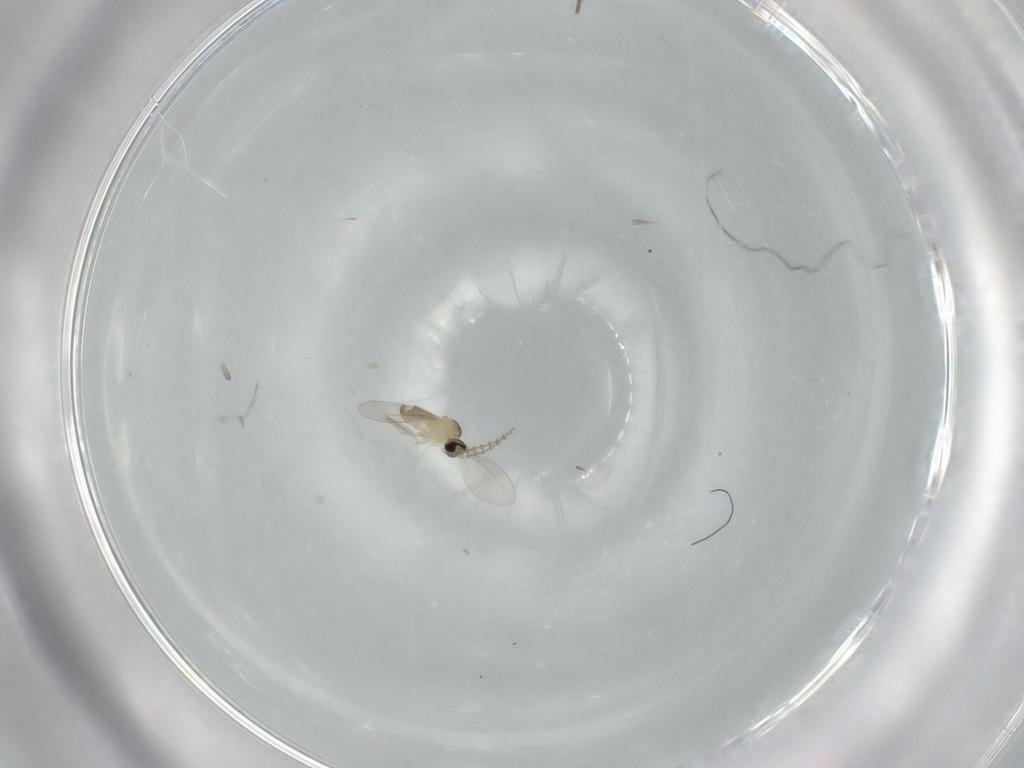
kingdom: Animalia
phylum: Arthropoda
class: Insecta
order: Diptera
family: Cecidomyiidae
